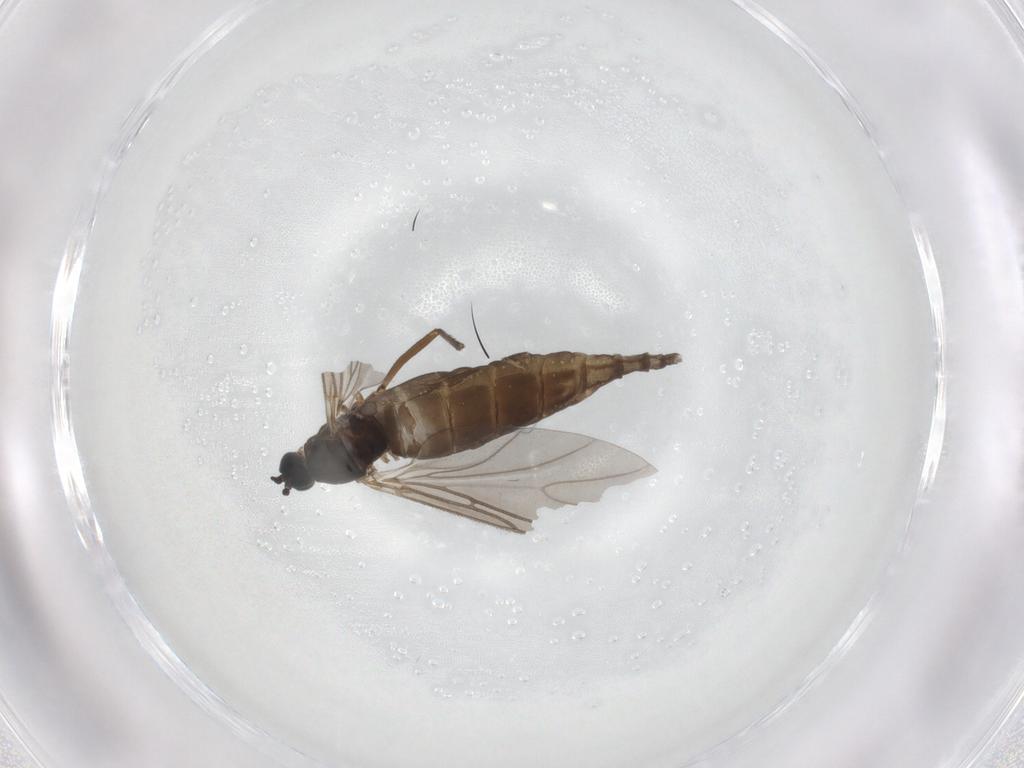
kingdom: Animalia
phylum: Arthropoda
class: Insecta
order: Diptera
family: Sciaridae
